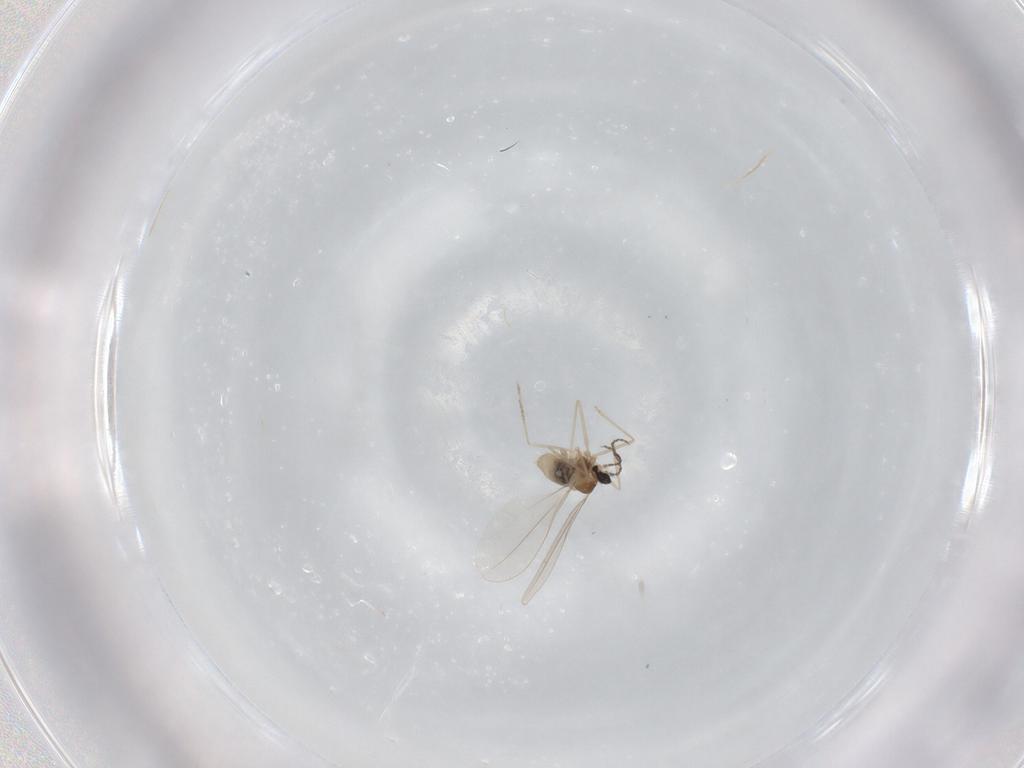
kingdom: Animalia
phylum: Arthropoda
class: Insecta
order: Diptera
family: Cecidomyiidae
